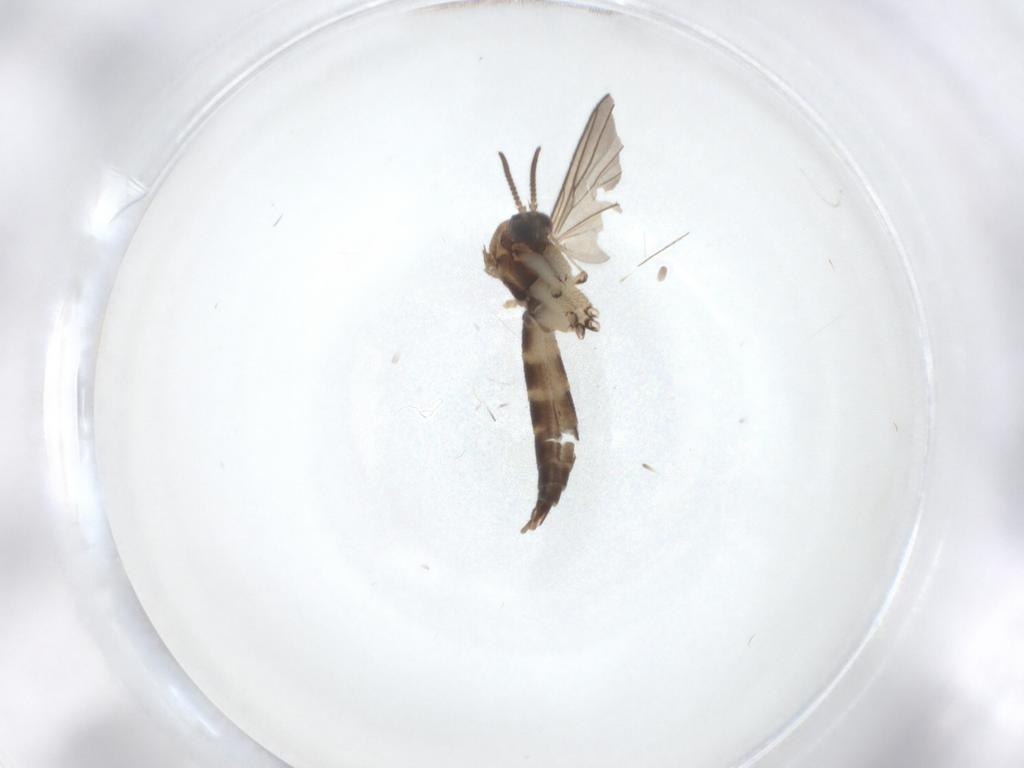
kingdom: Animalia
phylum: Arthropoda
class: Insecta
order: Diptera
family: Mycetophilidae
